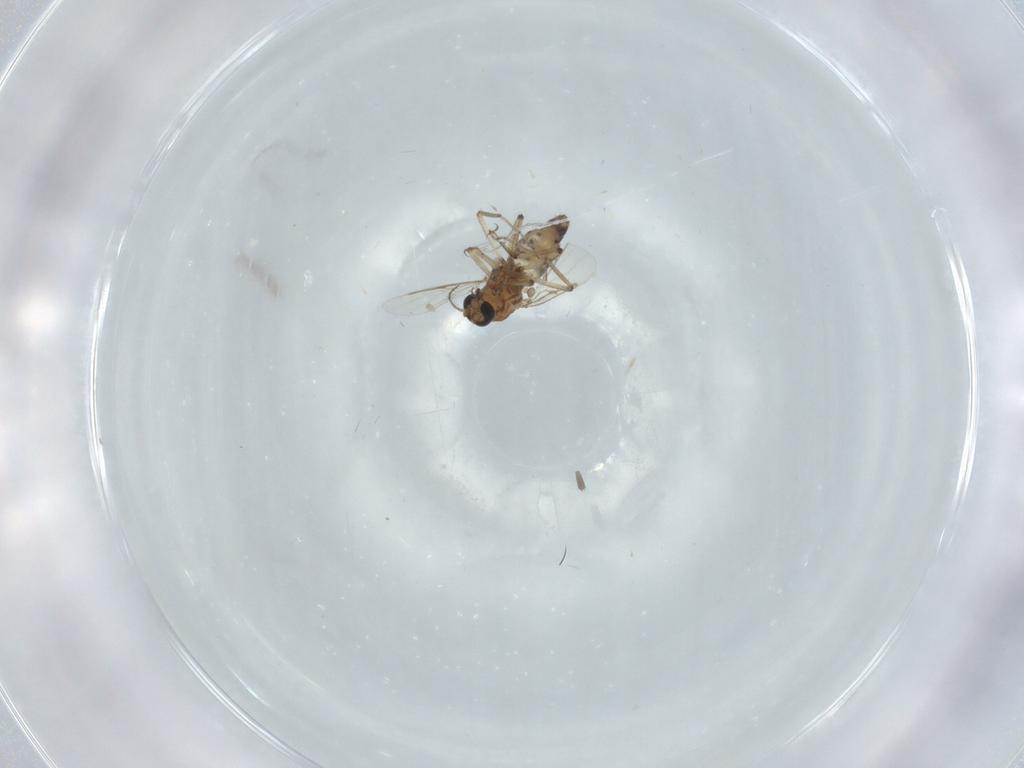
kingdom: Animalia
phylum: Arthropoda
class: Insecta
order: Diptera
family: Ceratopogonidae
